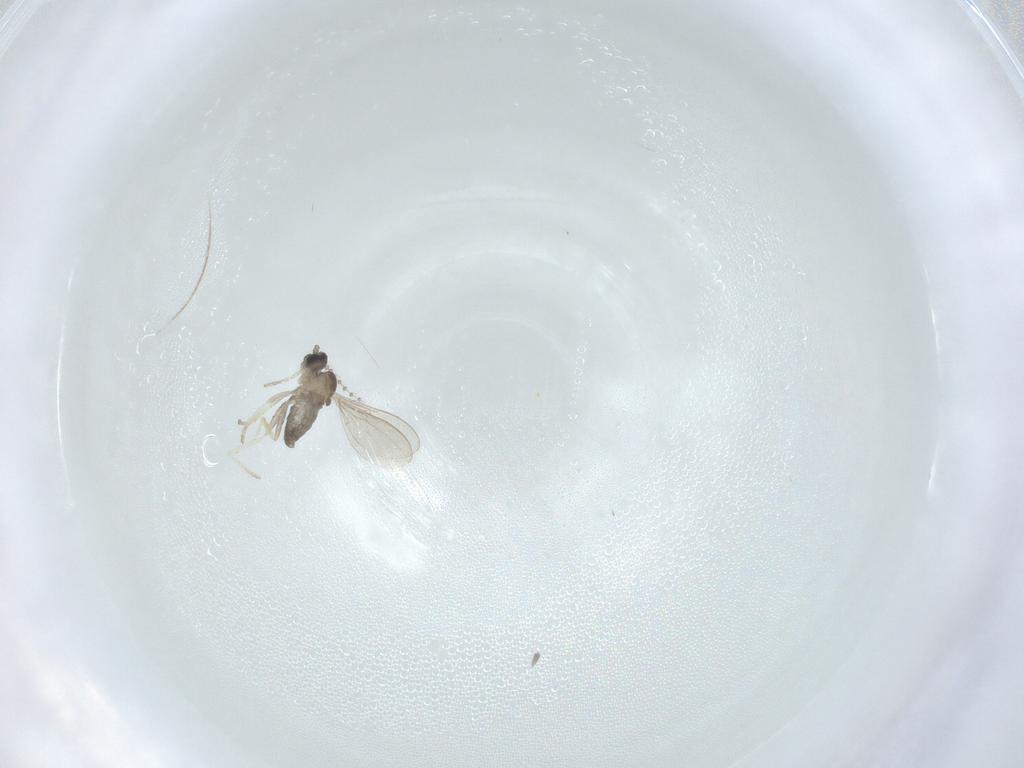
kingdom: Animalia
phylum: Arthropoda
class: Insecta
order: Diptera
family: Cecidomyiidae
